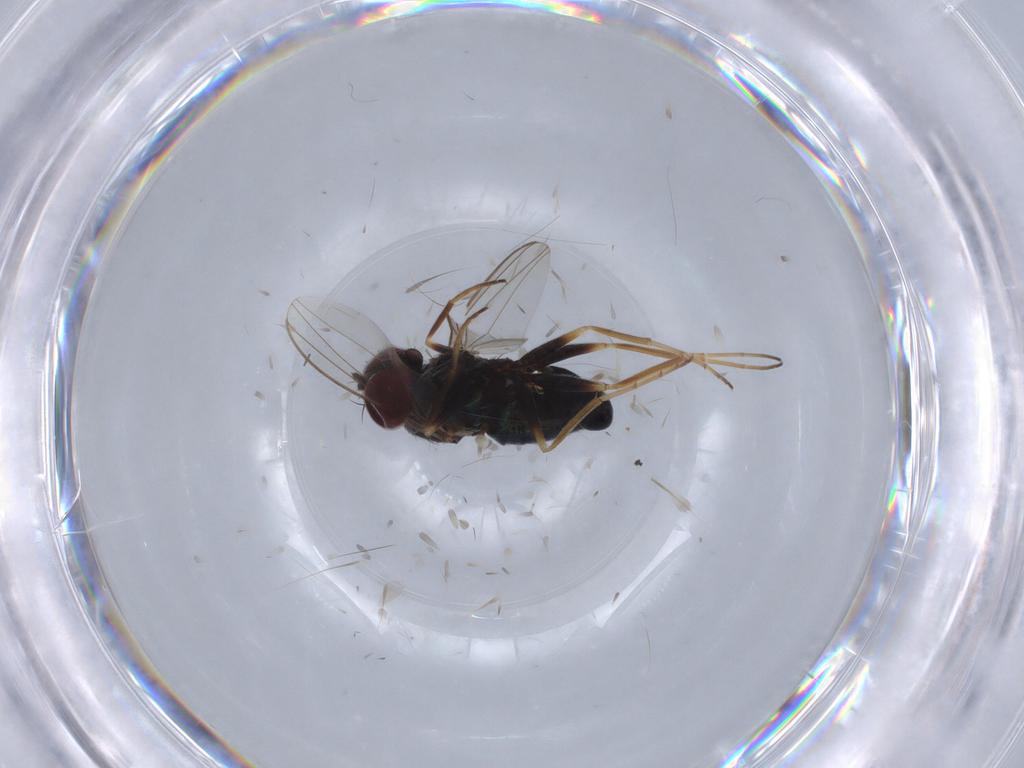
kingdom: Animalia
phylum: Arthropoda
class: Insecta
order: Diptera
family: Dolichopodidae
